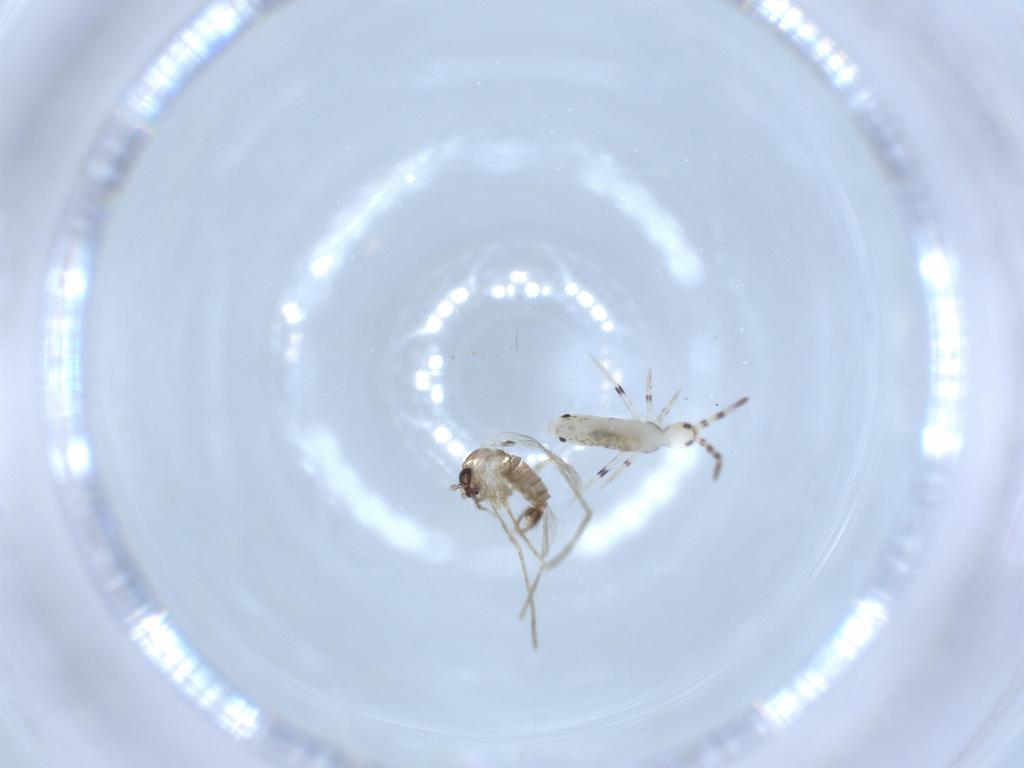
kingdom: Animalia
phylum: Arthropoda
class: Collembola
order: Entomobryomorpha
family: Entomobryidae
